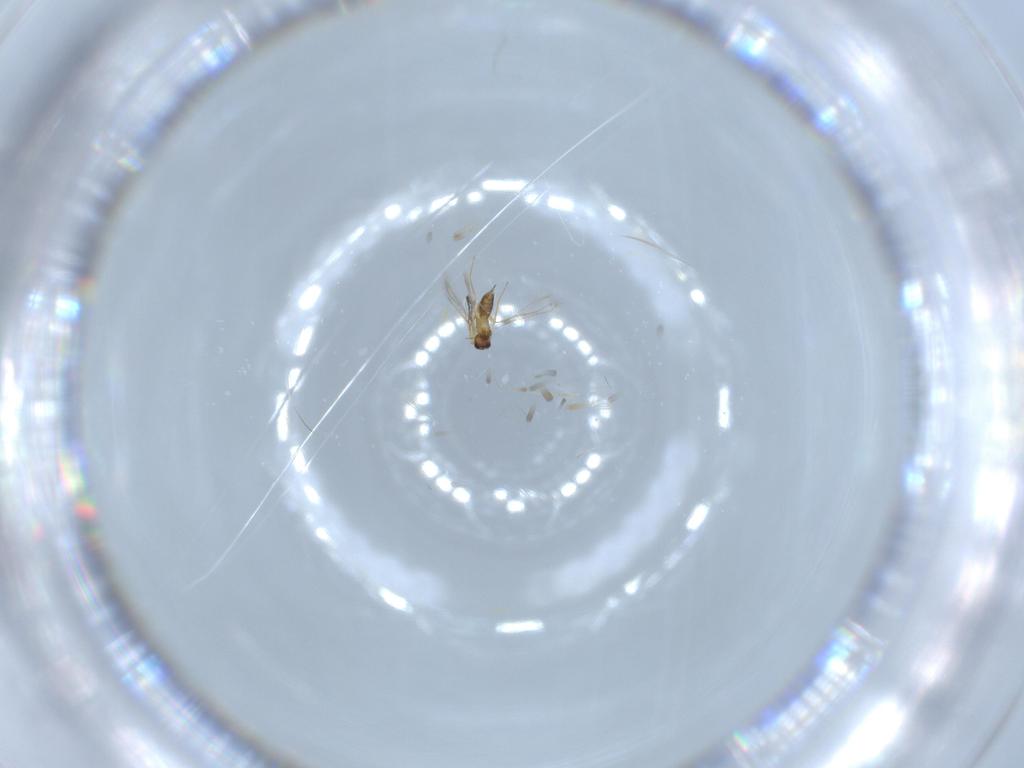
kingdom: Animalia
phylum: Arthropoda
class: Insecta
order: Hymenoptera
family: Mymaridae
